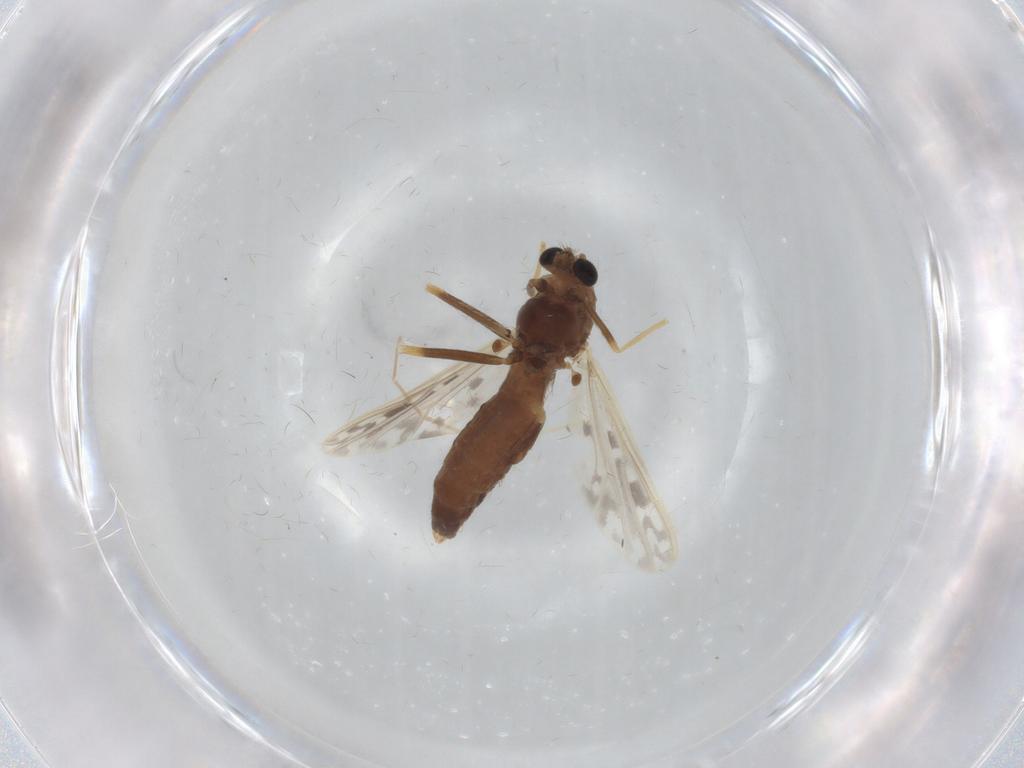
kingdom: Animalia
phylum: Arthropoda
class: Insecta
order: Diptera
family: Chironomidae
